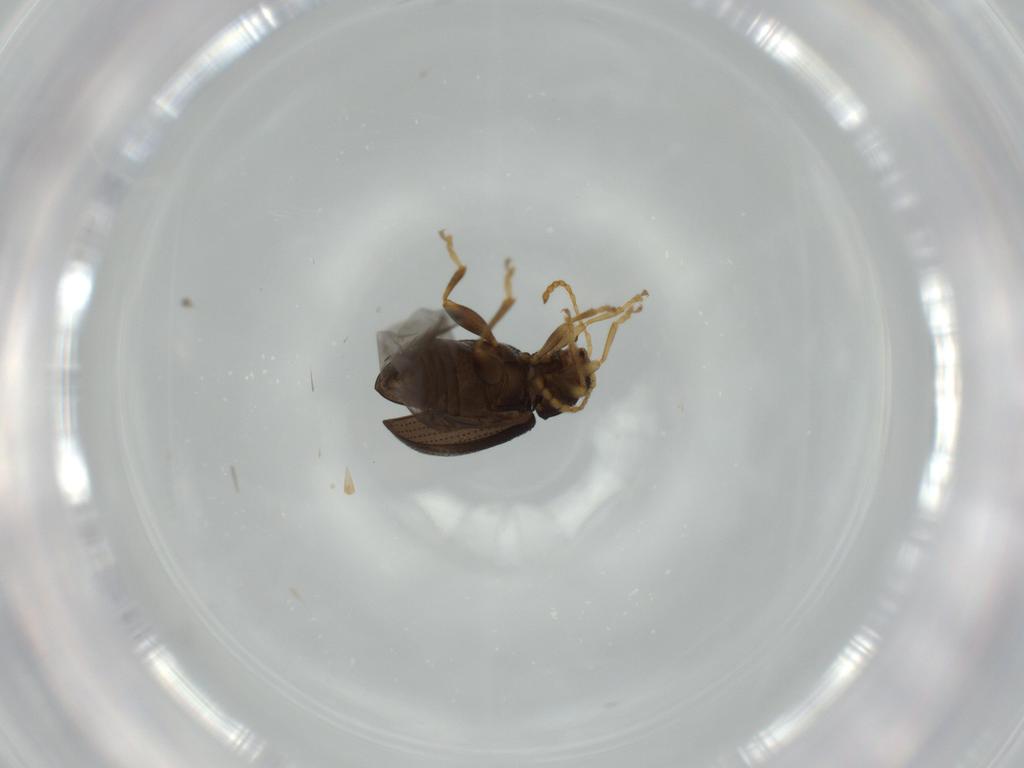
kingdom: Animalia
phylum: Arthropoda
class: Insecta
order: Coleoptera
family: Chrysomelidae
